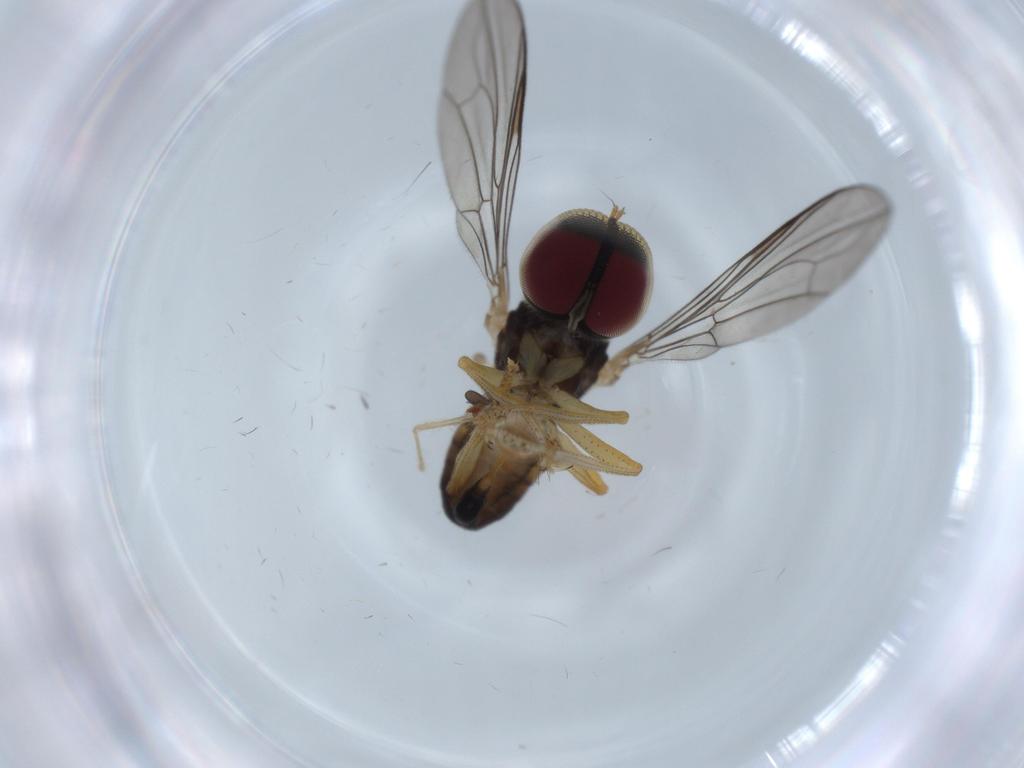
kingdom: Animalia
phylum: Arthropoda
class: Insecta
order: Diptera
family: Pipunculidae
